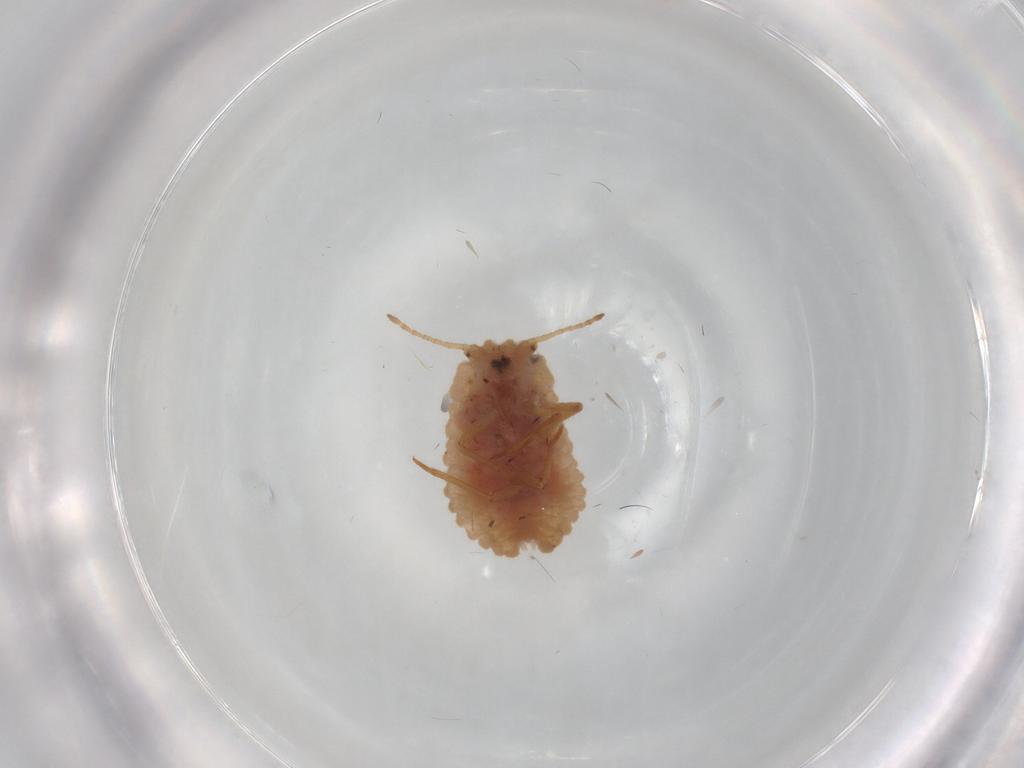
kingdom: Animalia
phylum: Arthropoda
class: Insecta
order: Hemiptera
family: Coccoidea_incertae_sedis
